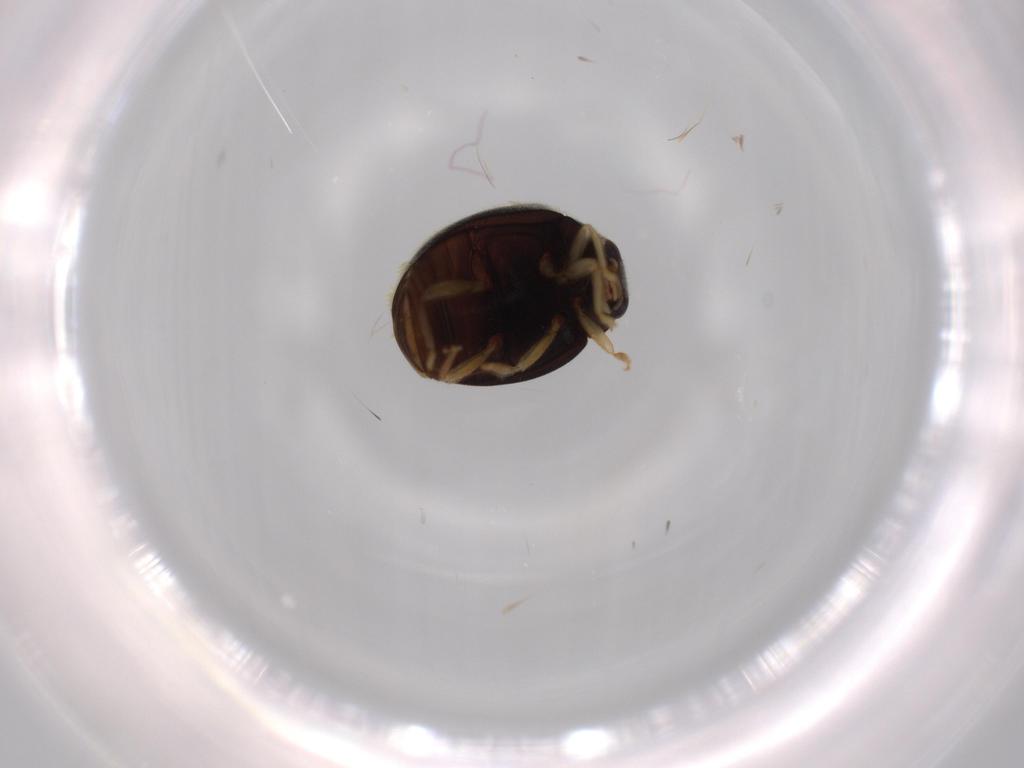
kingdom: Animalia
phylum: Arthropoda
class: Insecta
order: Coleoptera
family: Coccinellidae
